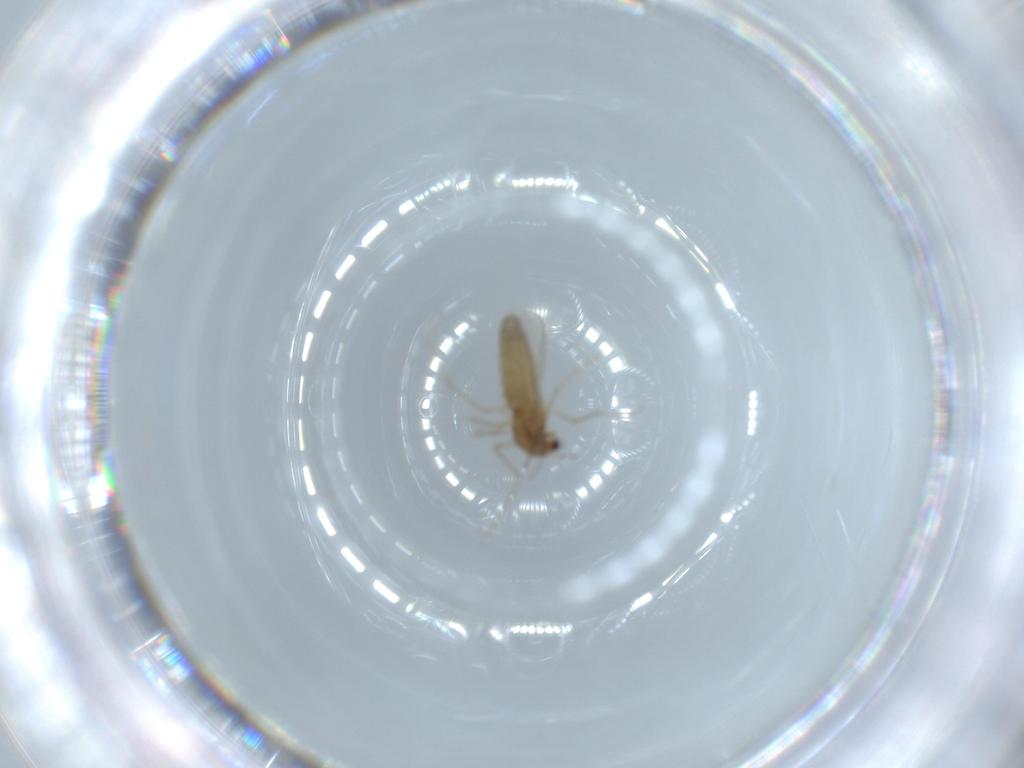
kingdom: Animalia
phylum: Arthropoda
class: Insecta
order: Diptera
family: Chironomidae
